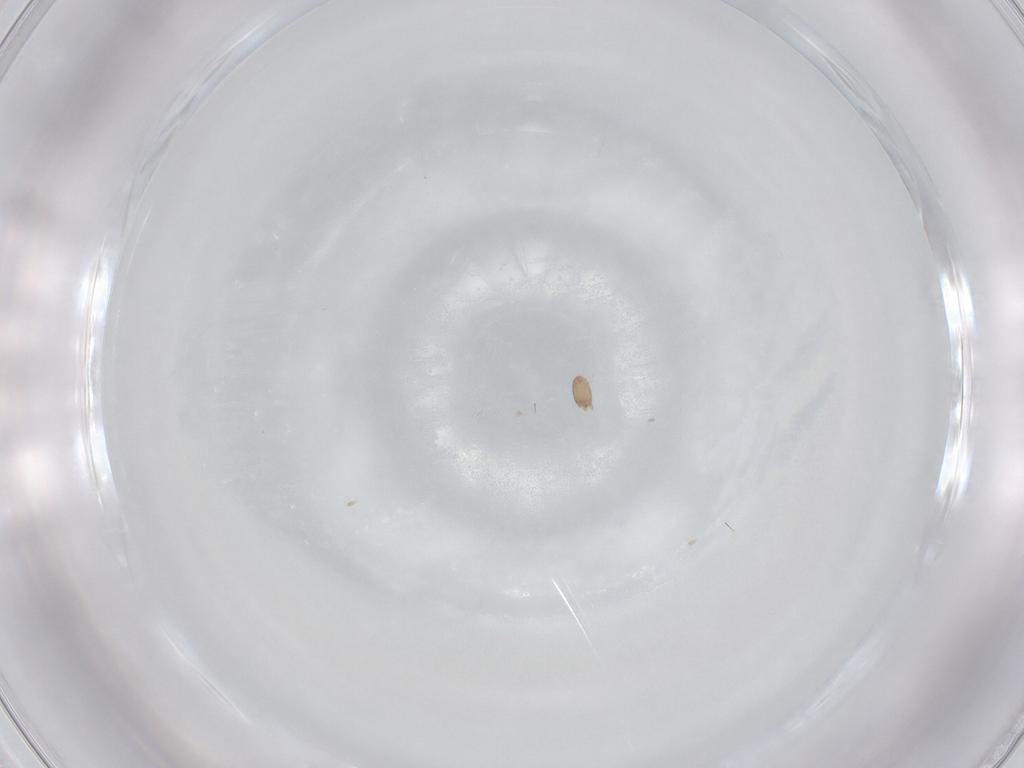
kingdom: Animalia
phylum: Arthropoda
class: Arachnida
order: Araneae
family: Linyphiidae
